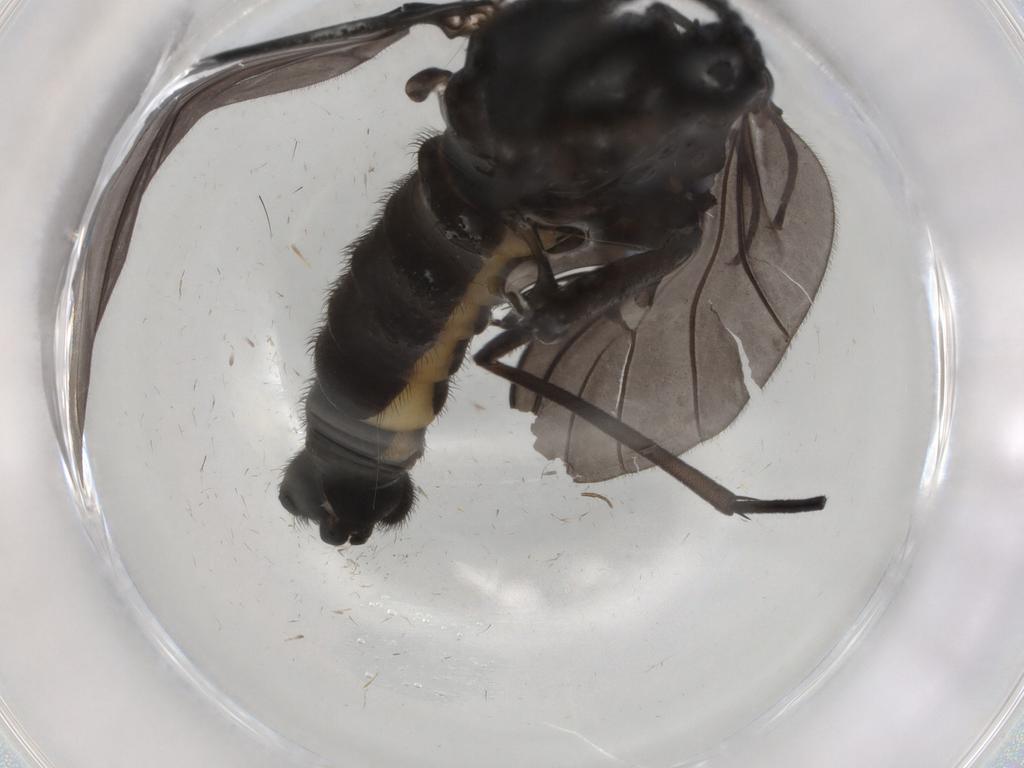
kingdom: Animalia
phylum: Arthropoda
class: Insecta
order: Diptera
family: Sciaridae
